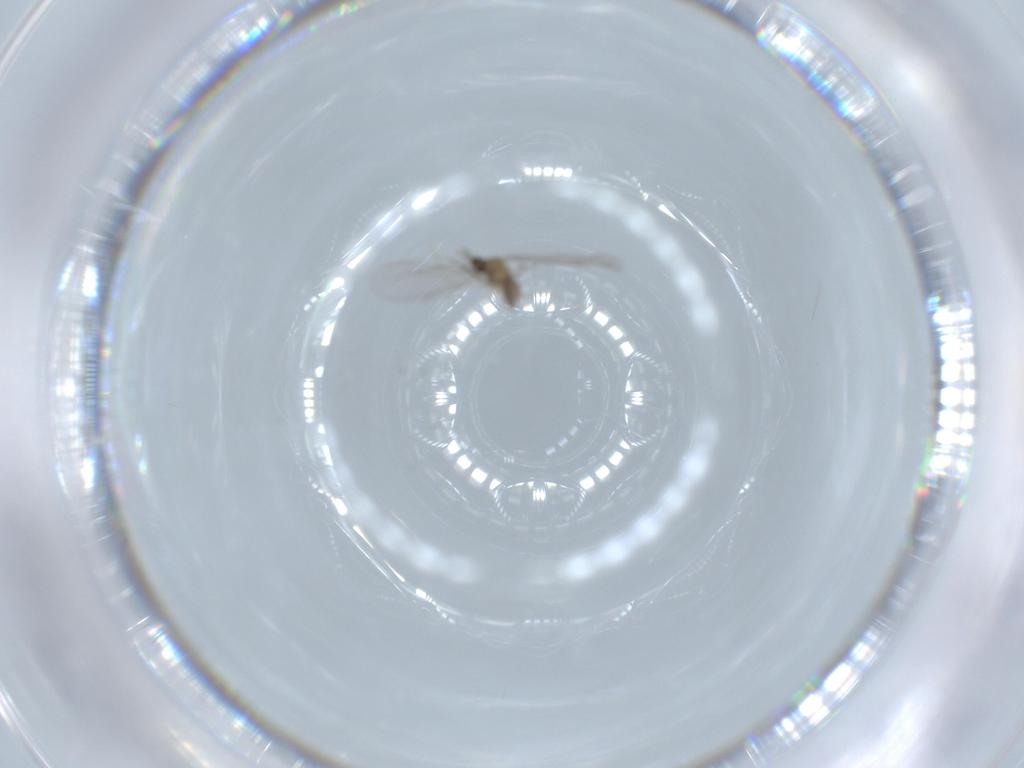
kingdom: Animalia
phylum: Arthropoda
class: Insecta
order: Diptera
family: Cecidomyiidae
